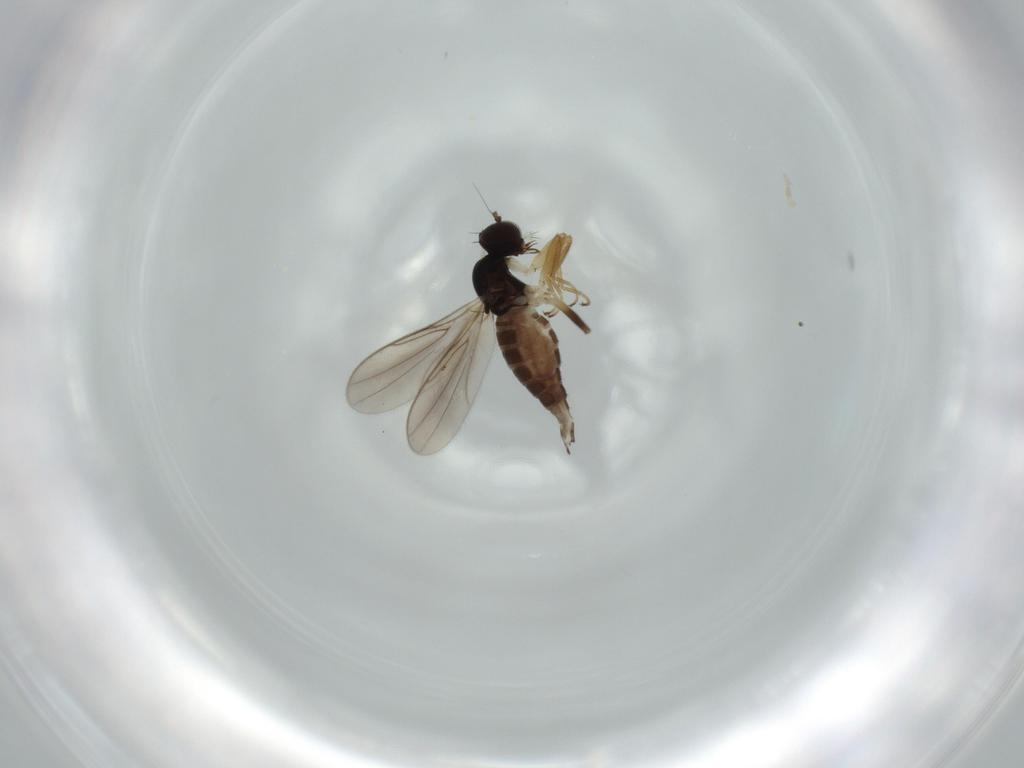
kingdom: Animalia
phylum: Arthropoda
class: Insecta
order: Diptera
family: Hybotidae
